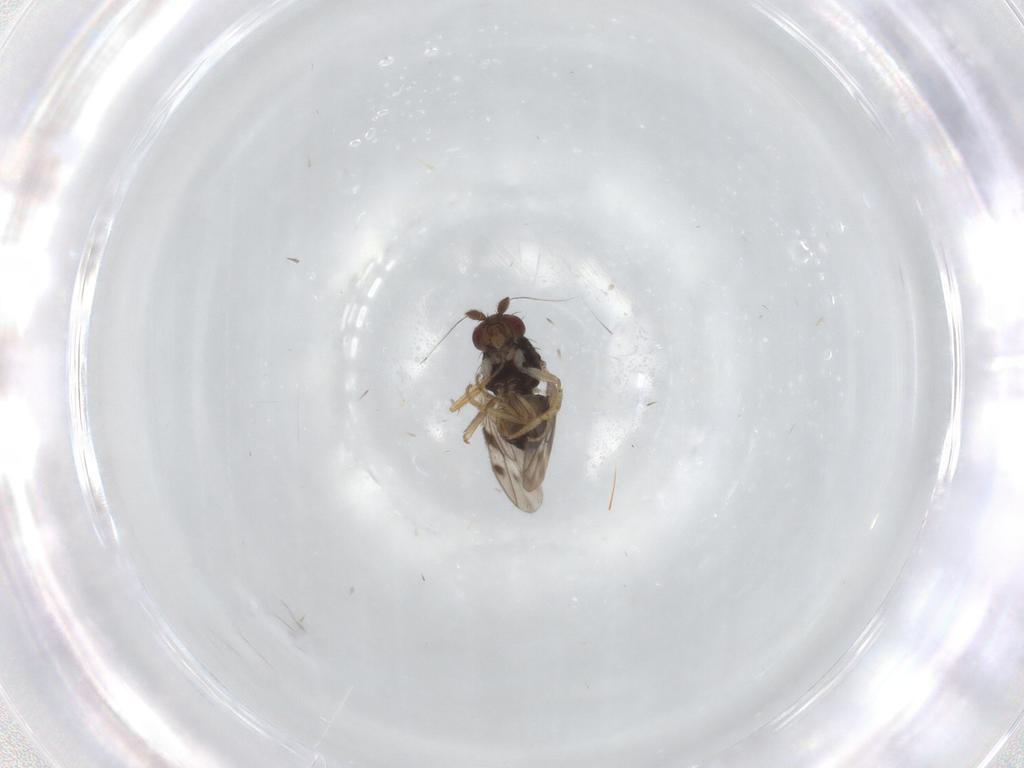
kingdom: Animalia
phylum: Arthropoda
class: Insecta
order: Diptera
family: Sphaeroceridae
